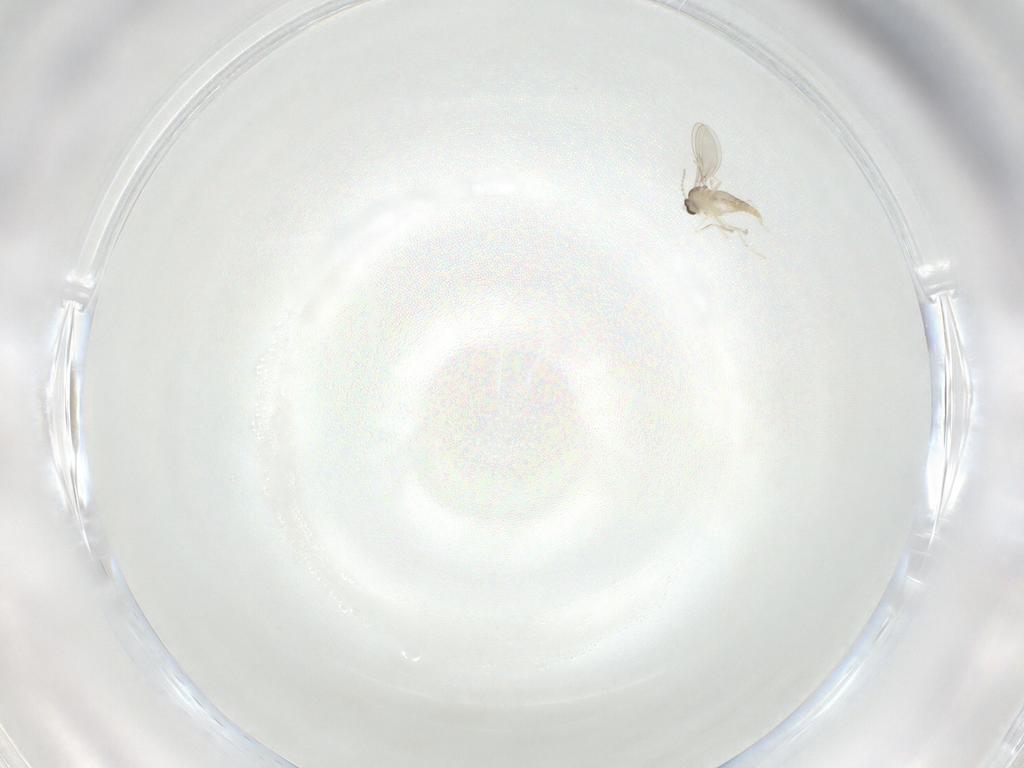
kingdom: Animalia
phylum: Arthropoda
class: Insecta
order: Diptera
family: Cecidomyiidae
